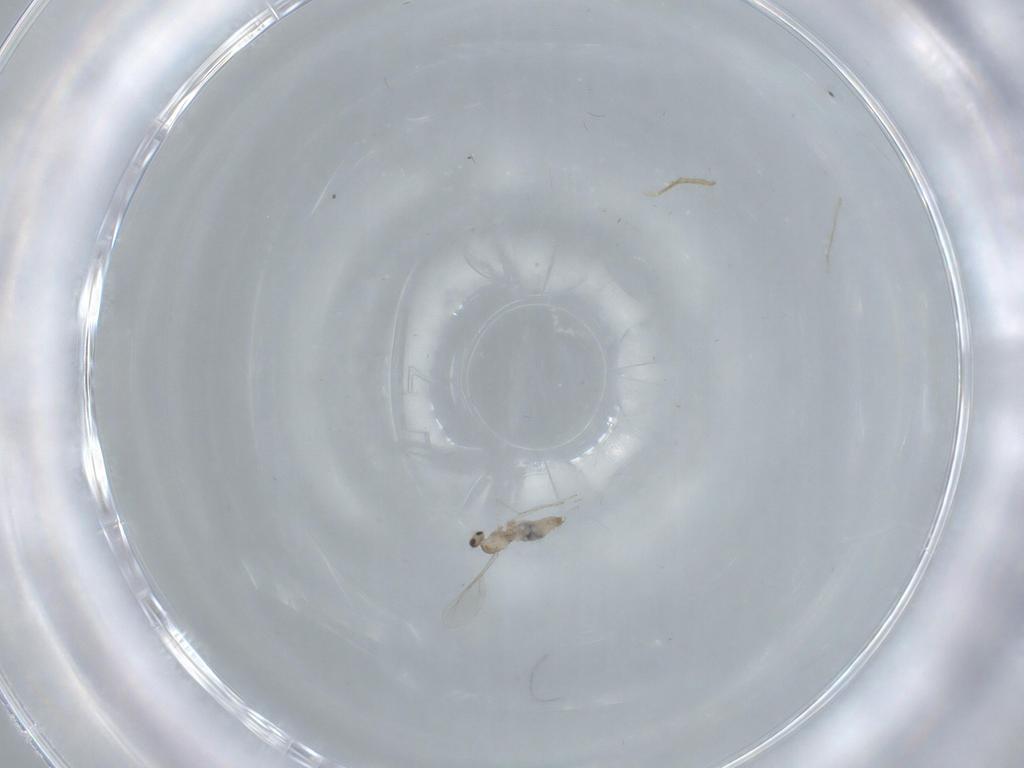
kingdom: Animalia
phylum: Arthropoda
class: Insecta
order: Diptera
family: Cecidomyiidae
